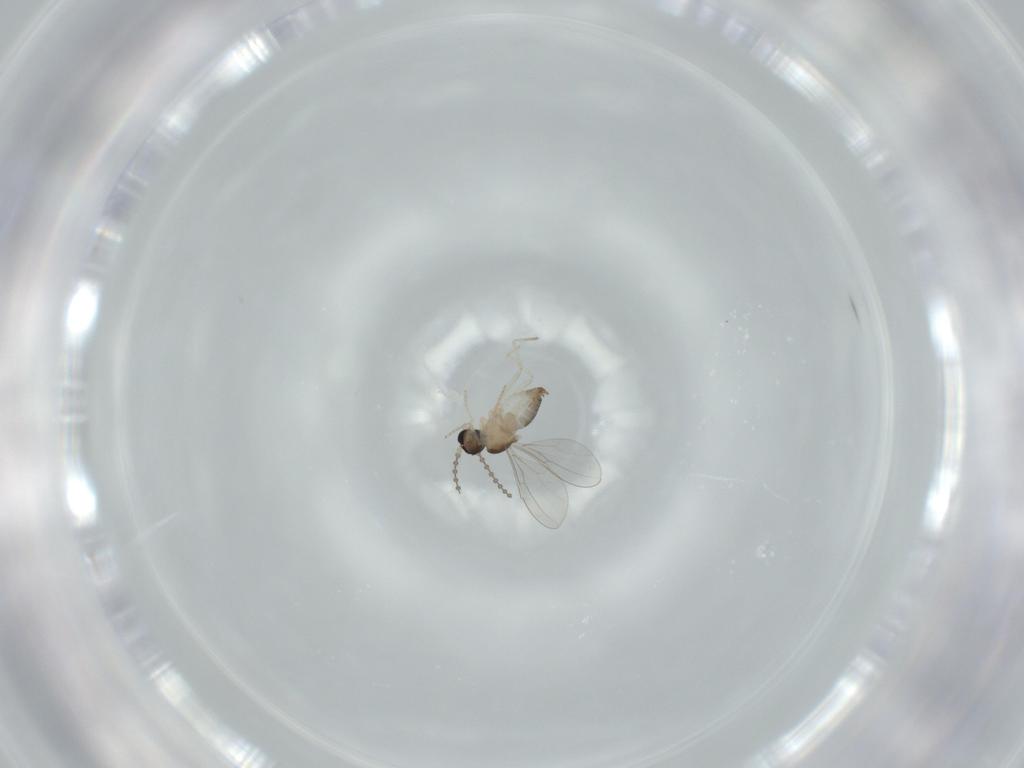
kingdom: Animalia
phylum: Arthropoda
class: Insecta
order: Diptera
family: Cecidomyiidae
